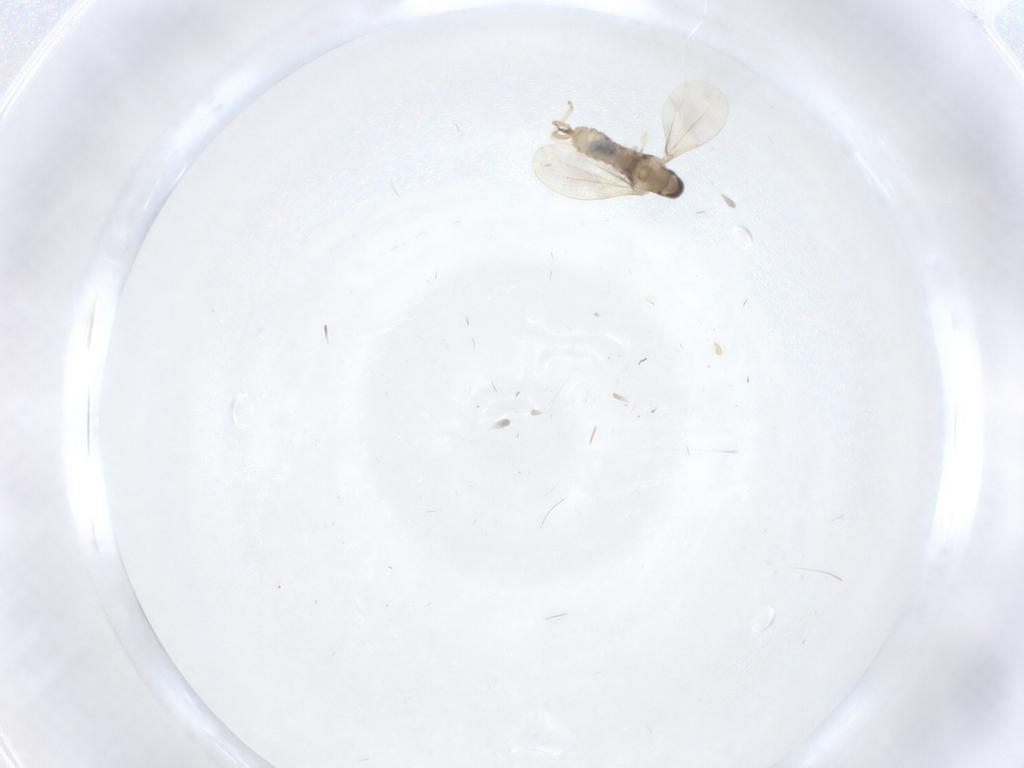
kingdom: Animalia
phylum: Arthropoda
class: Insecta
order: Diptera
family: Cecidomyiidae
